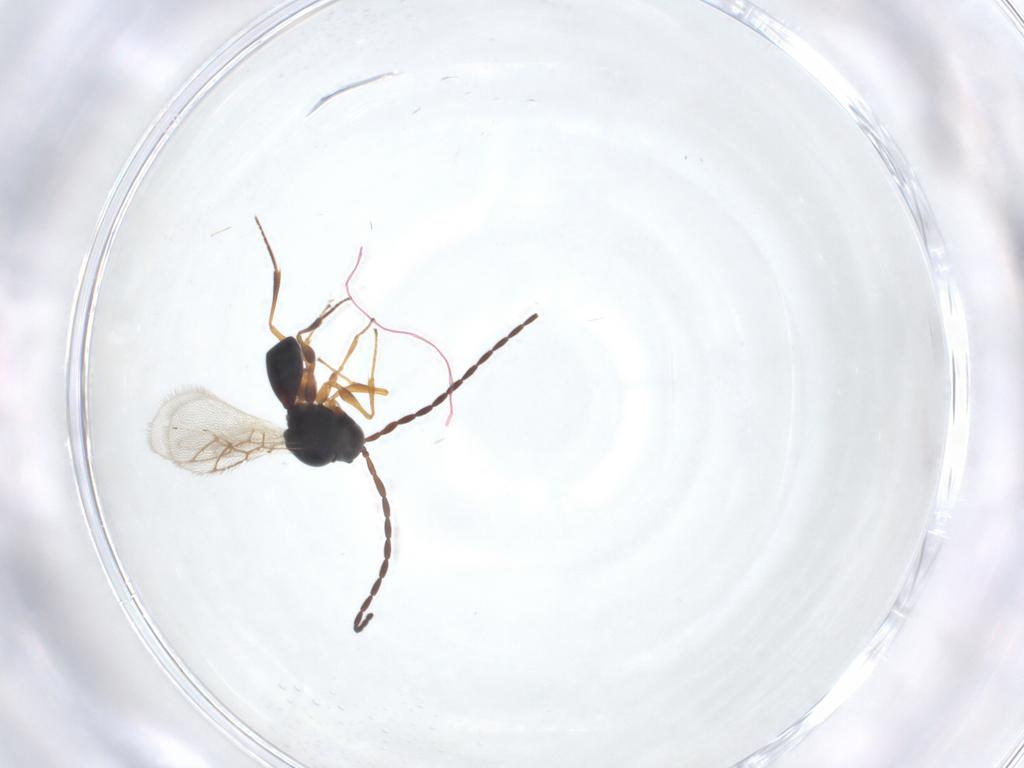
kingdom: Animalia
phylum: Arthropoda
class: Insecta
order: Hymenoptera
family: Figitidae
